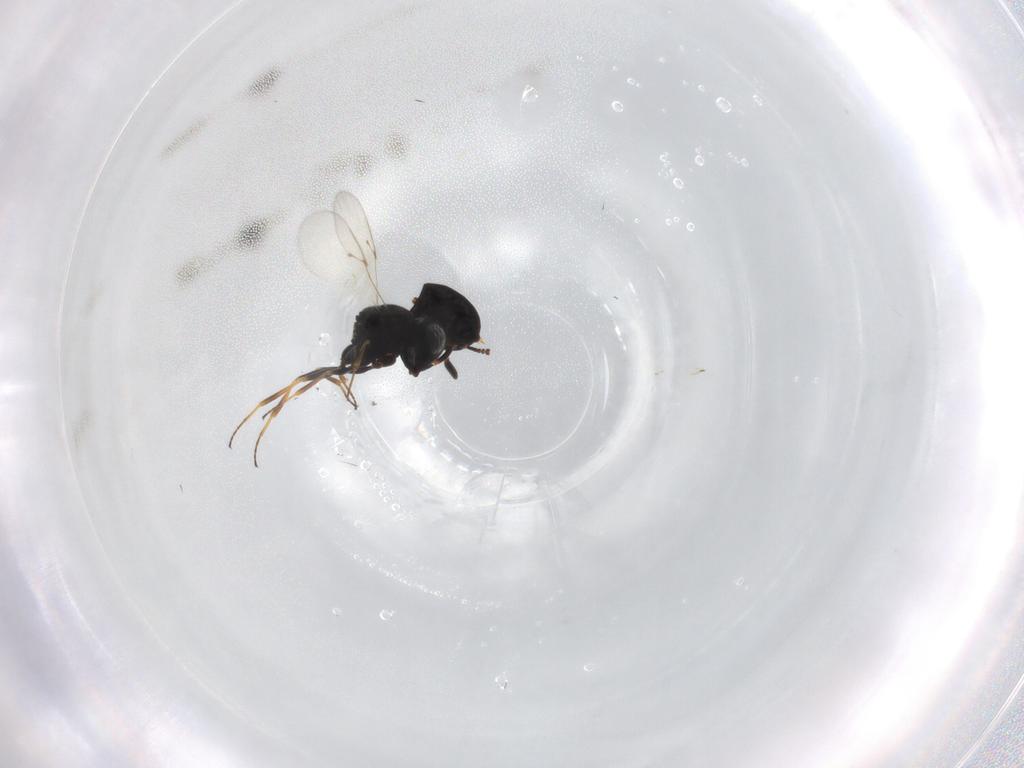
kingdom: Animalia
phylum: Arthropoda
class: Insecta
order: Hymenoptera
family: Scelionidae
